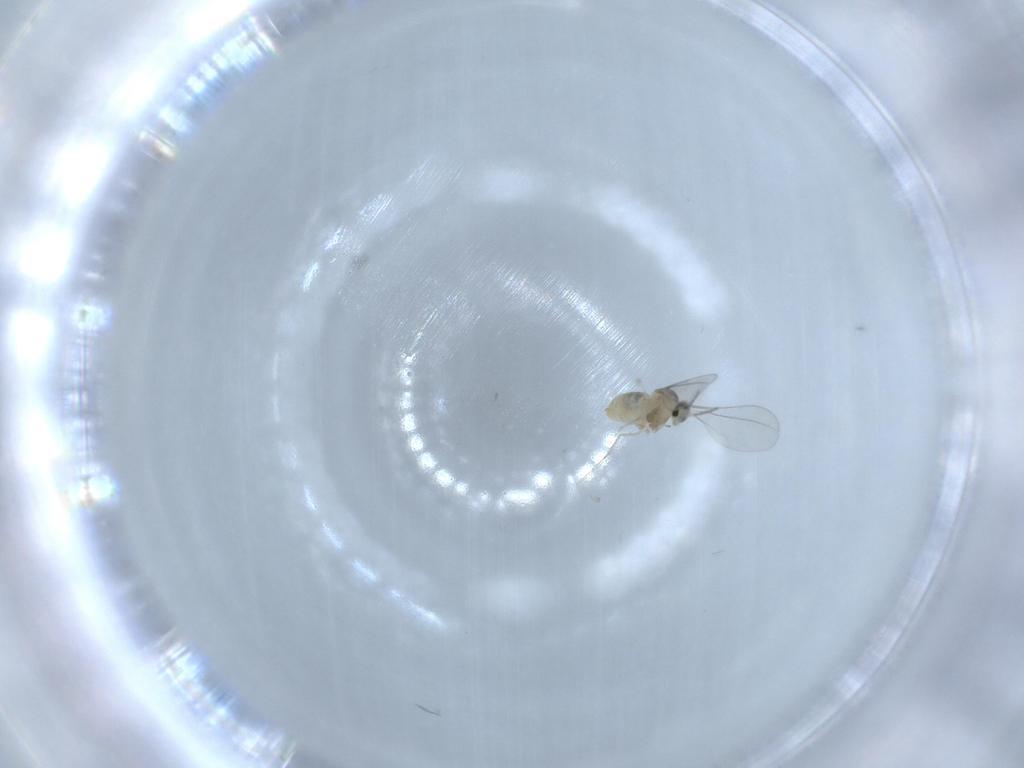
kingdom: Animalia
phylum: Arthropoda
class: Insecta
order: Diptera
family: Cecidomyiidae
